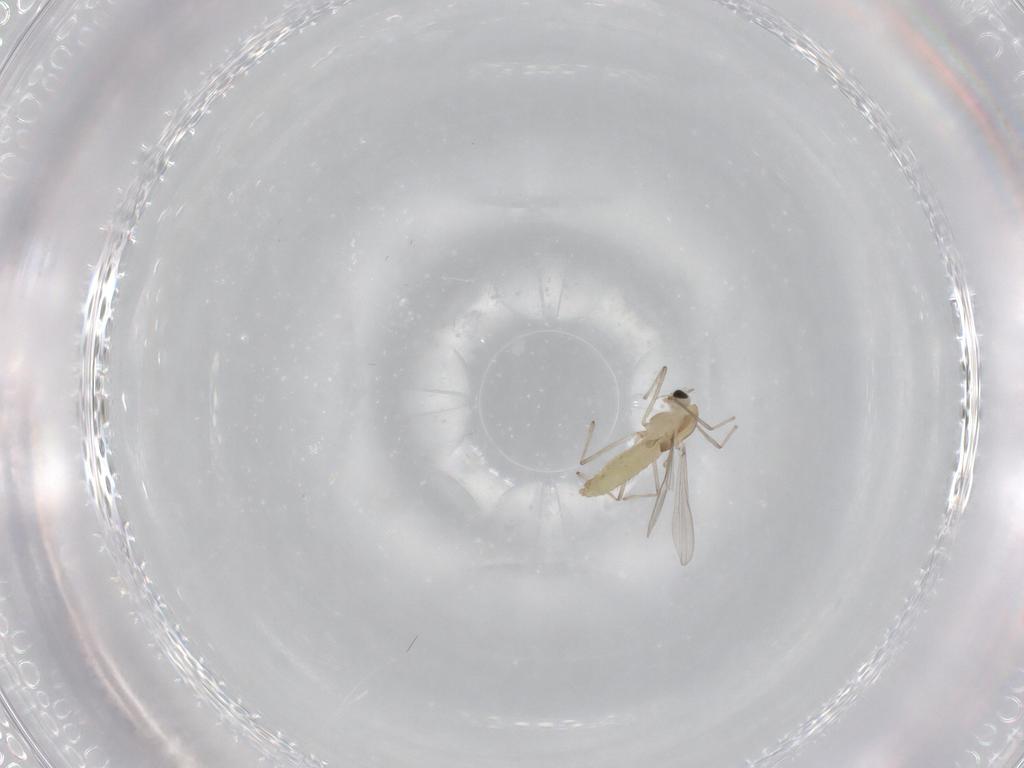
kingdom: Animalia
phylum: Arthropoda
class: Insecta
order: Diptera
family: Chironomidae
